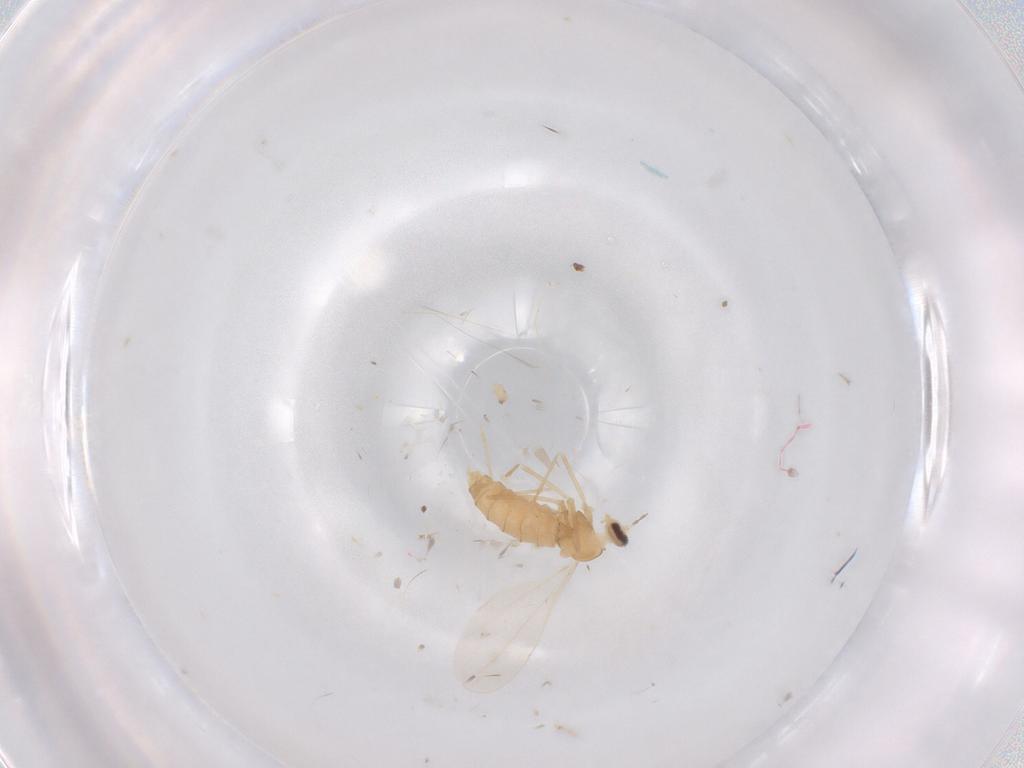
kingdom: Animalia
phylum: Arthropoda
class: Insecta
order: Diptera
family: Cecidomyiidae
